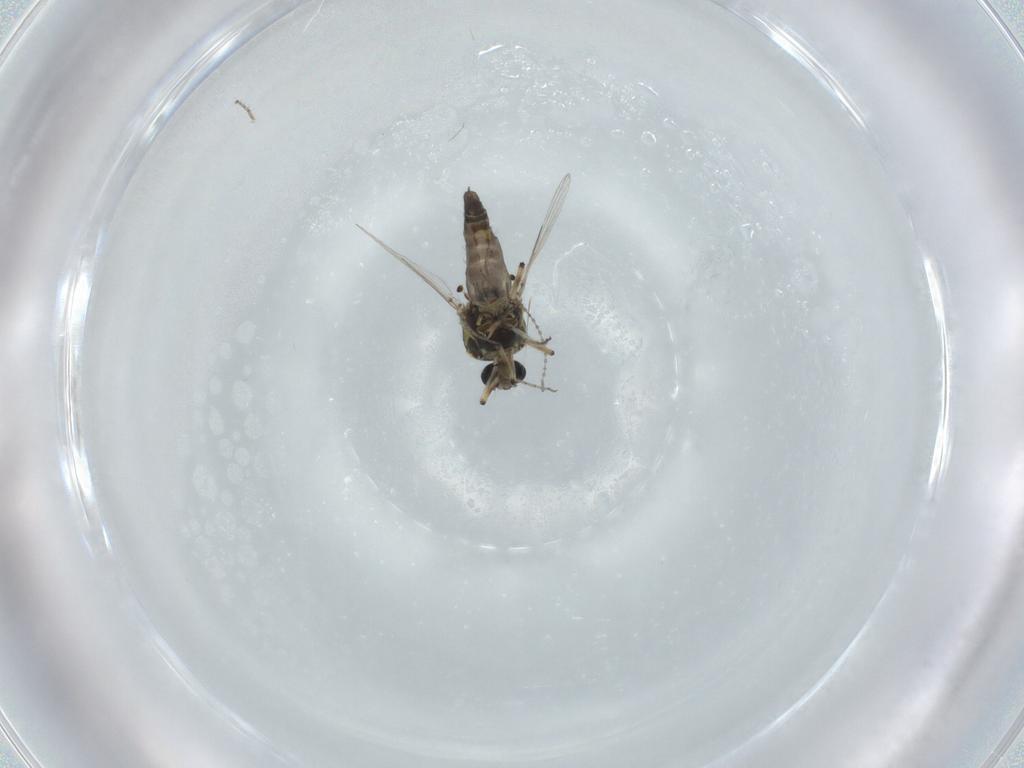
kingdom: Animalia
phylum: Arthropoda
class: Insecta
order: Diptera
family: Cecidomyiidae
